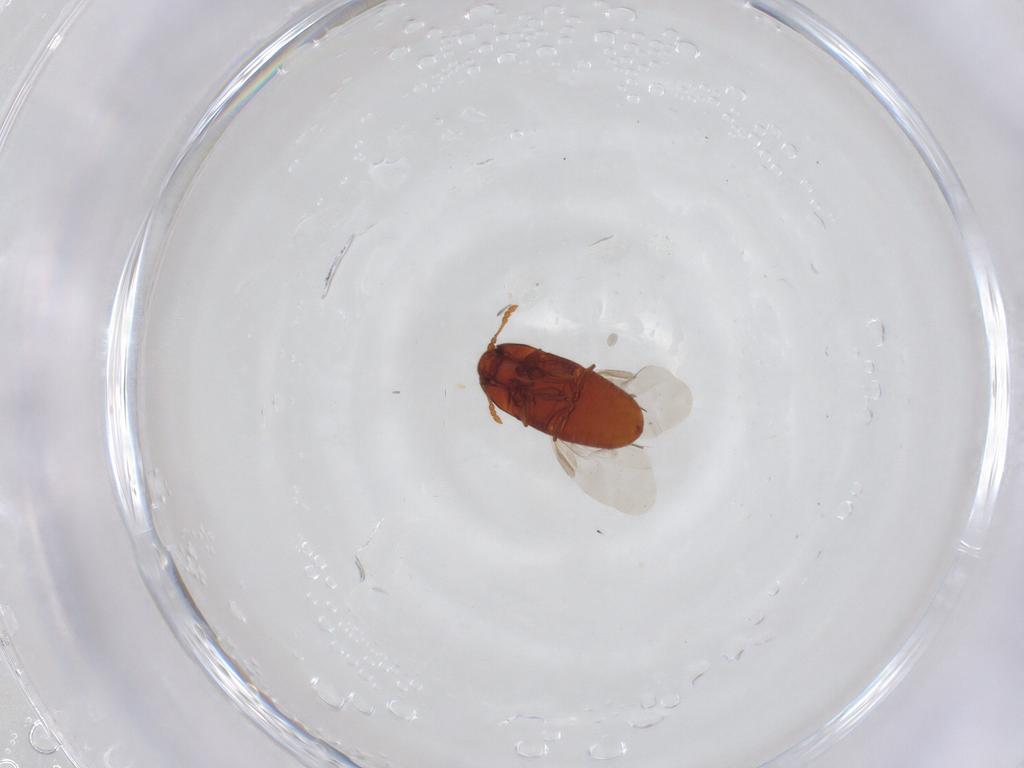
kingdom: Animalia
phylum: Arthropoda
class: Insecta
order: Coleoptera
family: Throscidae
